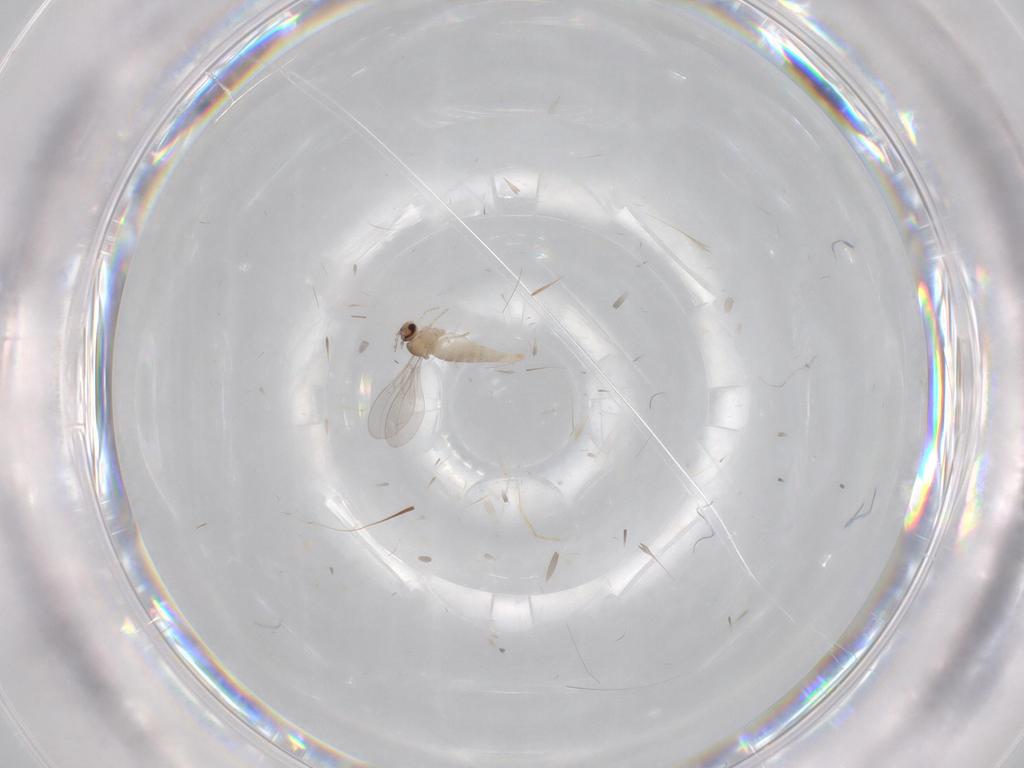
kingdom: Animalia
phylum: Arthropoda
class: Insecta
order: Diptera
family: Cecidomyiidae
